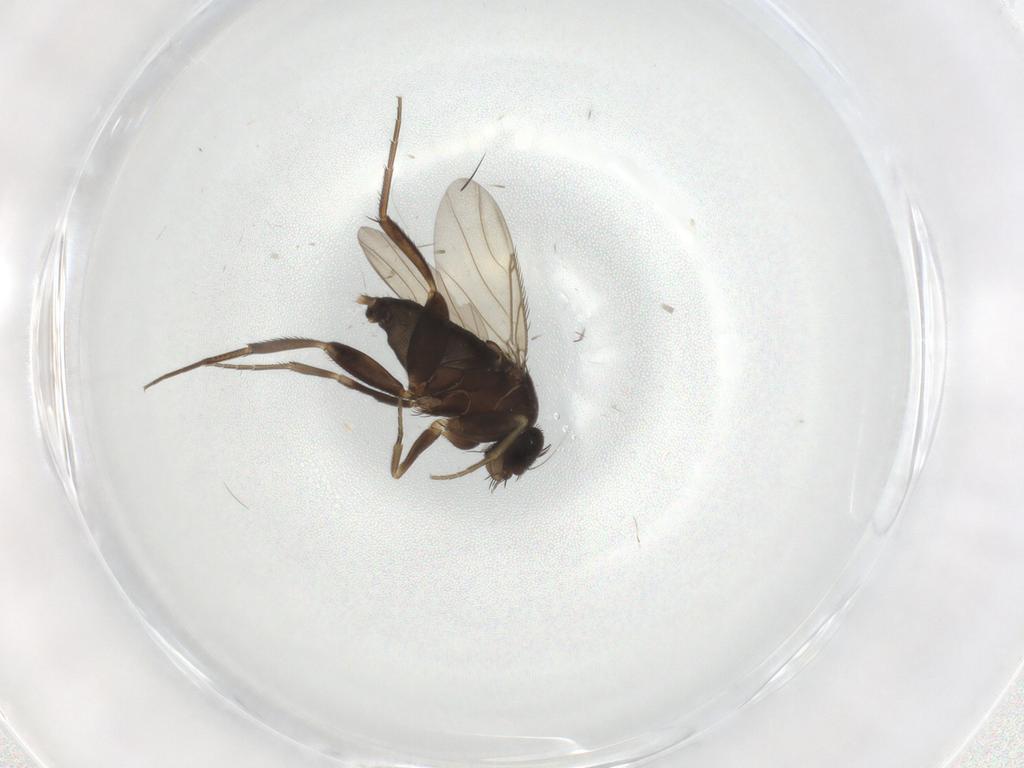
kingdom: Animalia
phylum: Arthropoda
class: Insecta
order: Diptera
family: Phoridae
